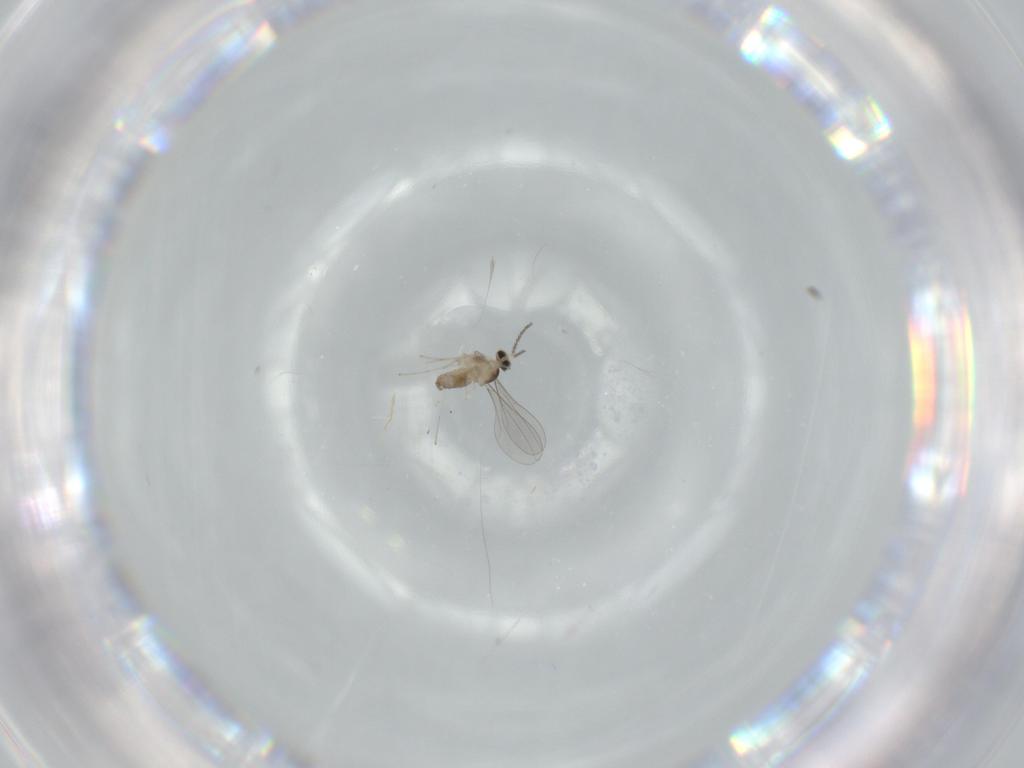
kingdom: Animalia
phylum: Arthropoda
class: Insecta
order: Diptera
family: Cecidomyiidae
